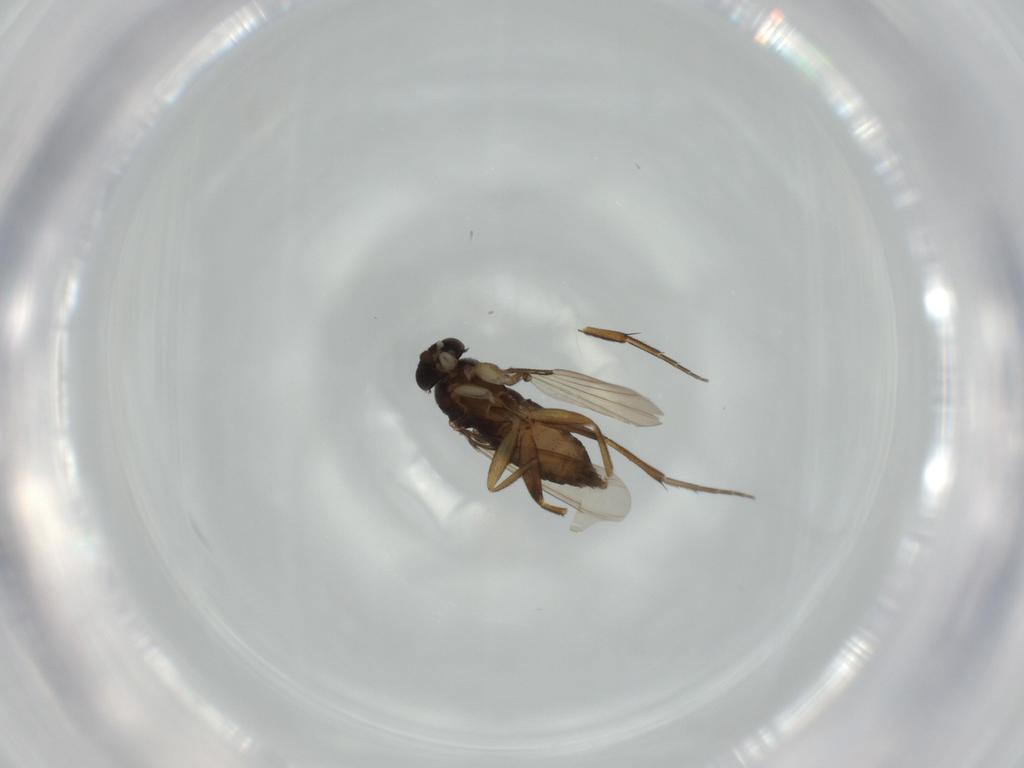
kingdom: Animalia
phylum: Arthropoda
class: Insecta
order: Diptera
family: Phoridae
